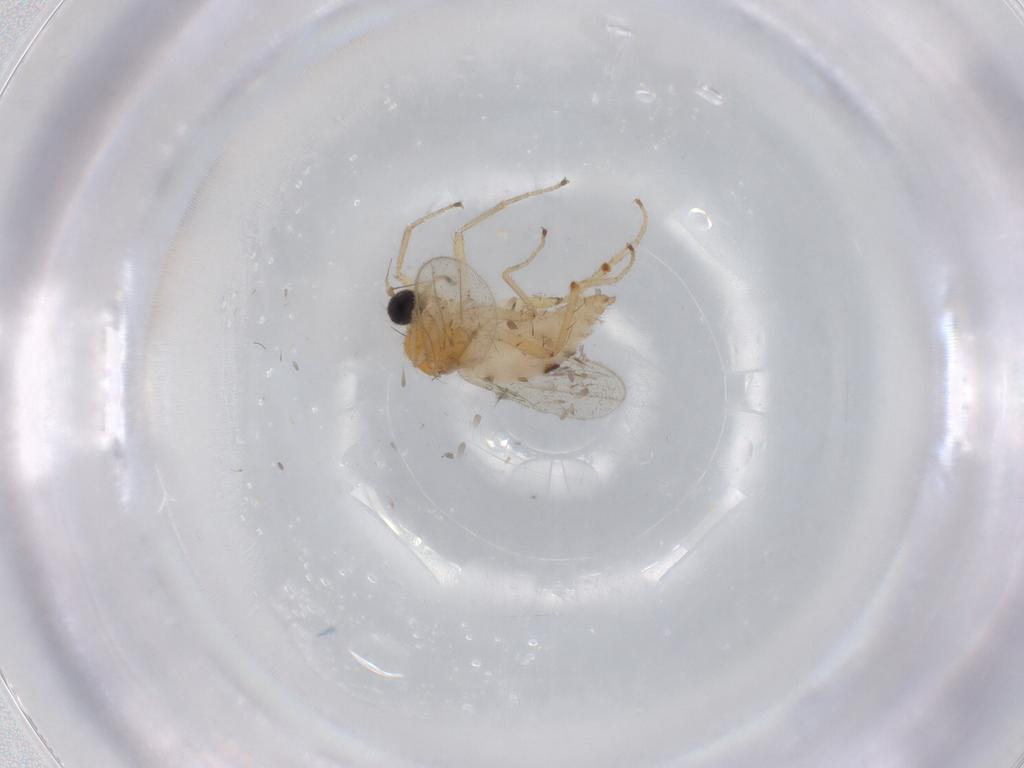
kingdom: Animalia
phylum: Arthropoda
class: Insecta
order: Diptera
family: Hybotidae
